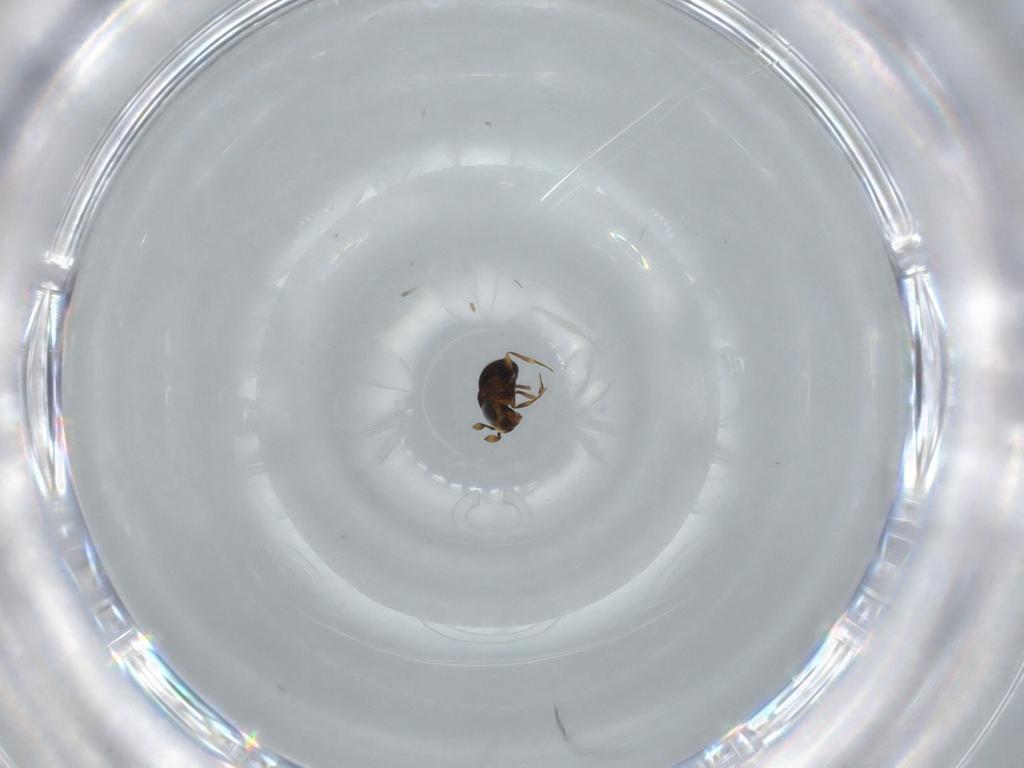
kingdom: Animalia
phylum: Arthropoda
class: Insecta
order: Hymenoptera
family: Scelionidae
